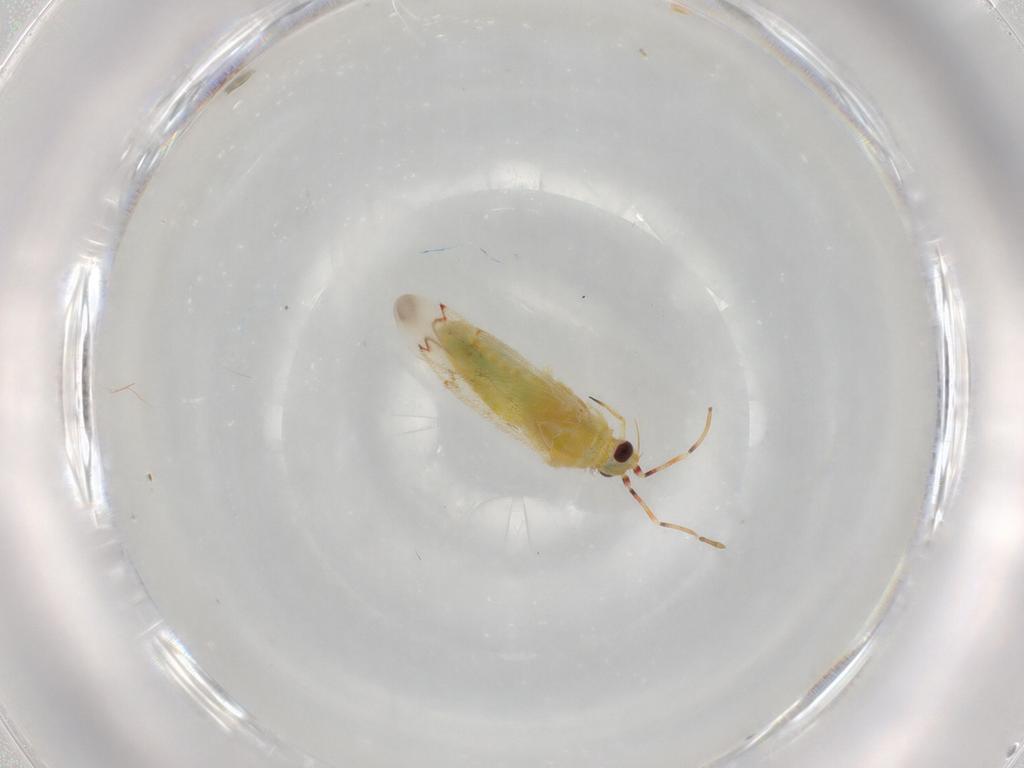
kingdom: Animalia
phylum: Arthropoda
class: Insecta
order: Hemiptera
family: Miridae
